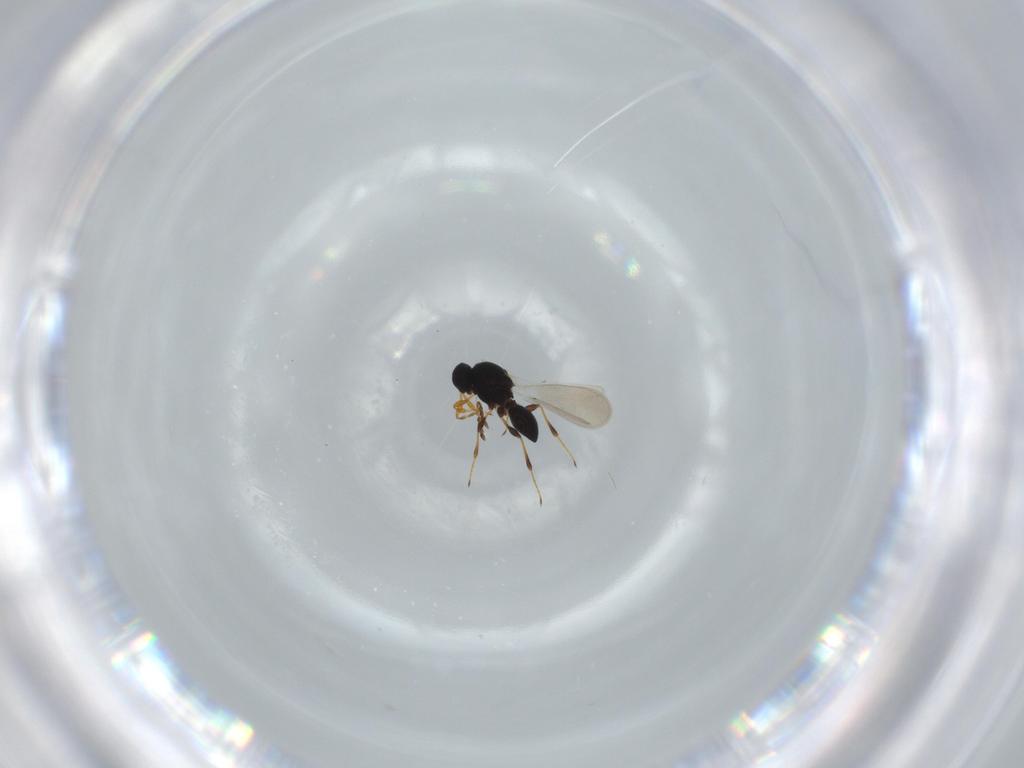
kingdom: Animalia
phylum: Arthropoda
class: Insecta
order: Hymenoptera
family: Platygastridae
